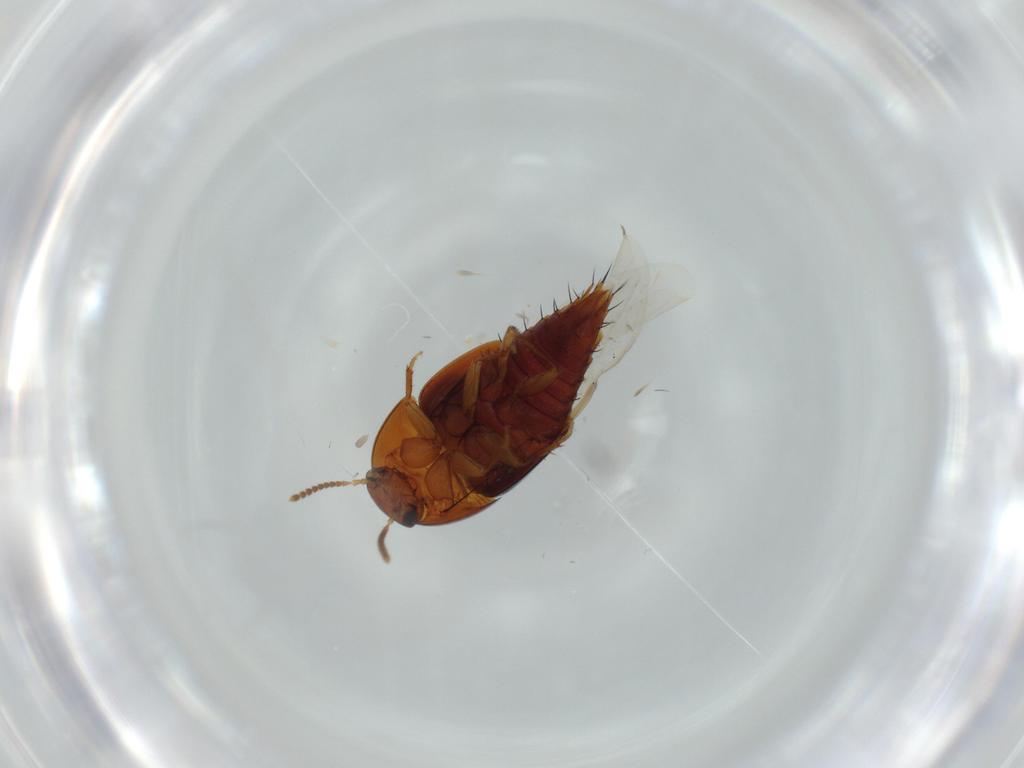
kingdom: Animalia
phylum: Arthropoda
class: Insecta
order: Coleoptera
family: Staphylinidae
